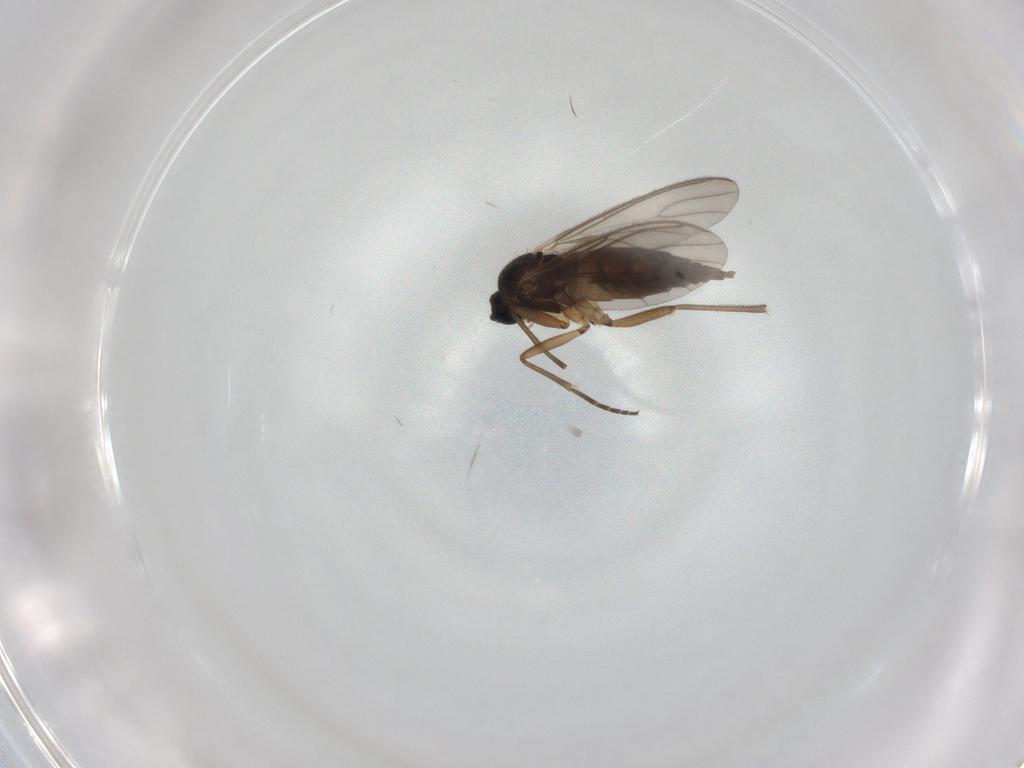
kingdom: Animalia
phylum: Arthropoda
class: Insecta
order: Diptera
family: Sciaridae
